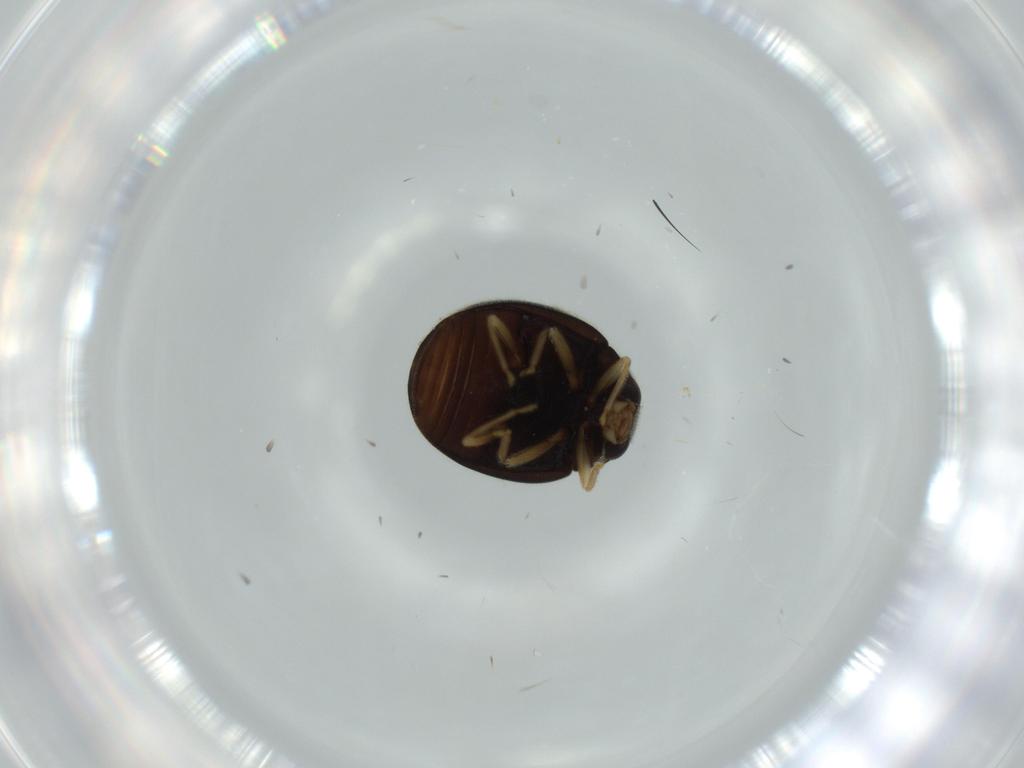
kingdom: Animalia
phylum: Arthropoda
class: Insecta
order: Coleoptera
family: Coccinellidae
